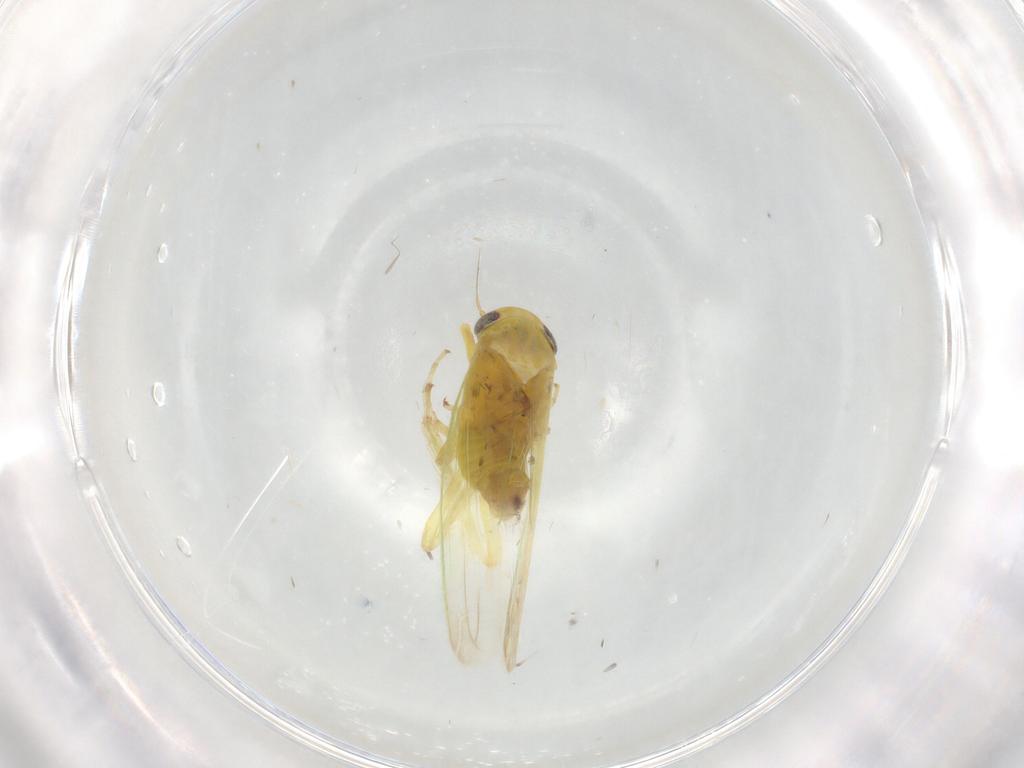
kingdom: Animalia
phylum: Arthropoda
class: Insecta
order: Hemiptera
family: Cicadellidae
